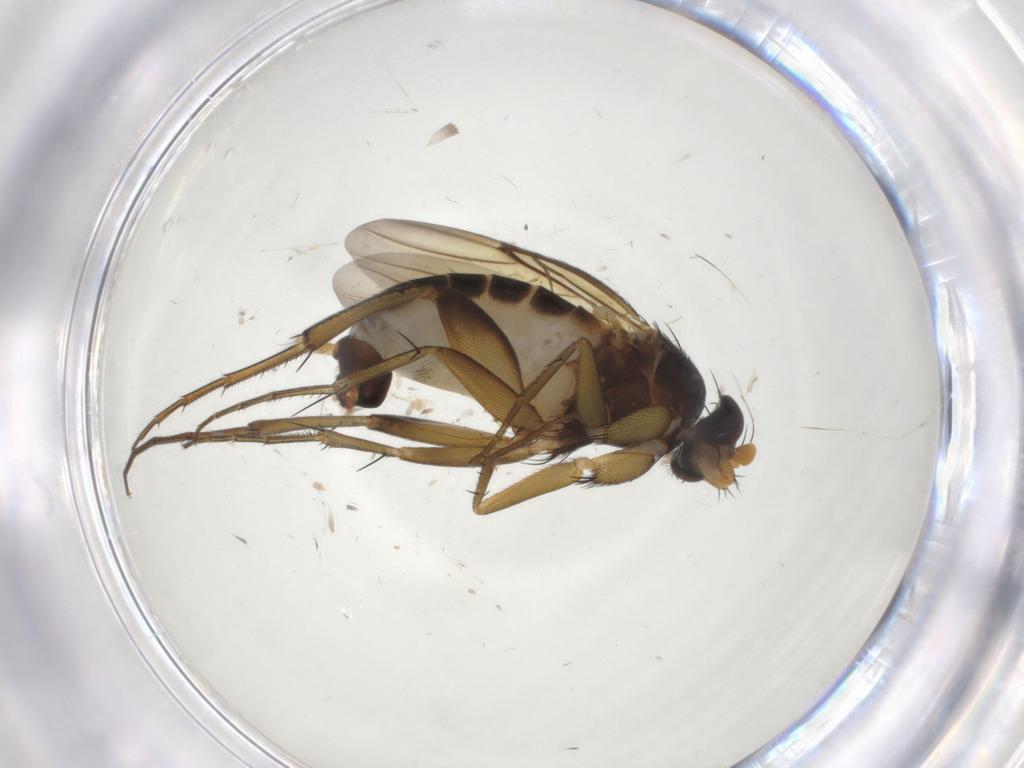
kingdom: Animalia
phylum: Arthropoda
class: Insecta
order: Diptera
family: Phoridae
